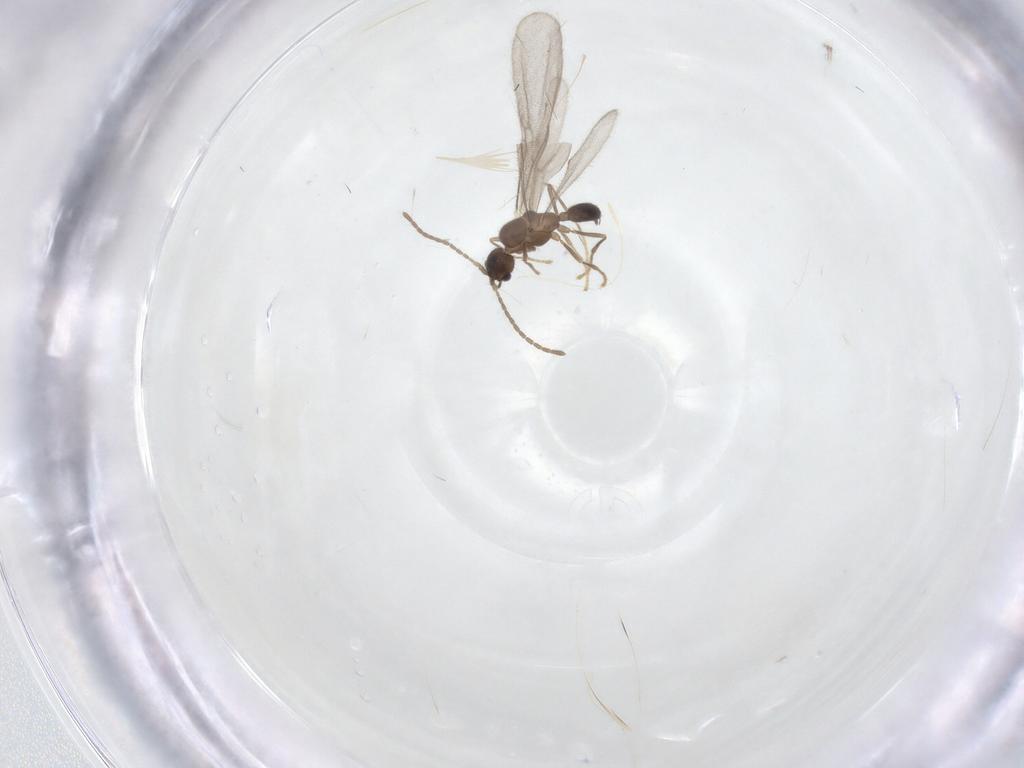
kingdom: Animalia
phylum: Arthropoda
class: Insecta
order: Hymenoptera
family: Formicidae
